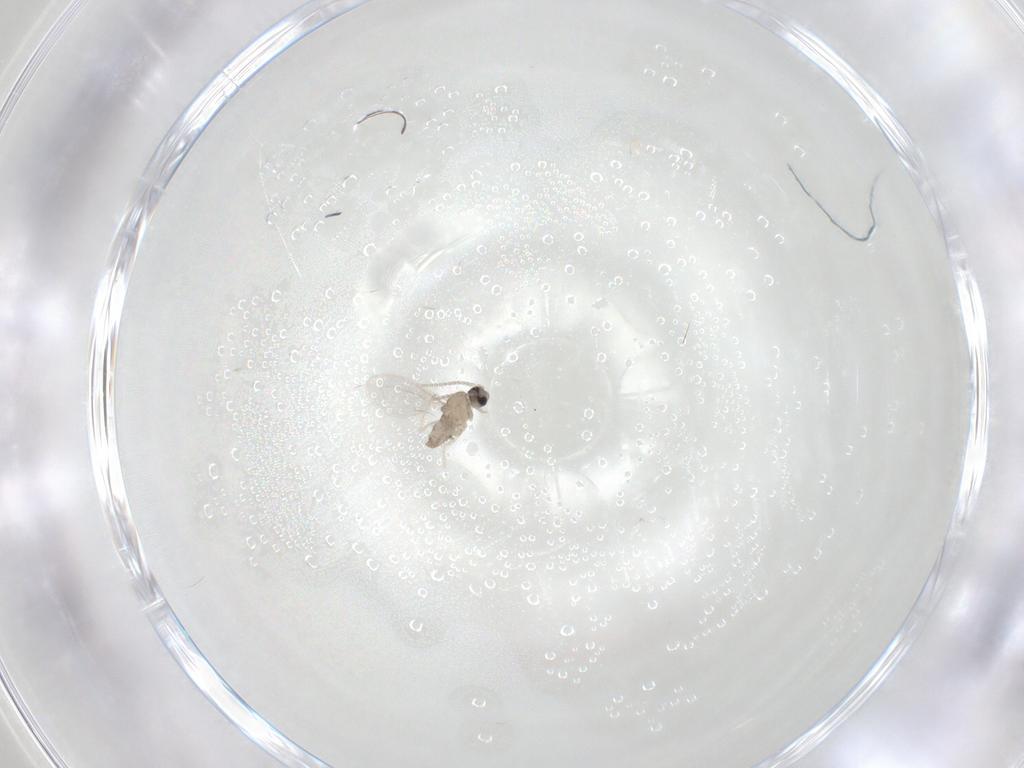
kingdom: Animalia
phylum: Arthropoda
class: Insecta
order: Diptera
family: Cecidomyiidae
